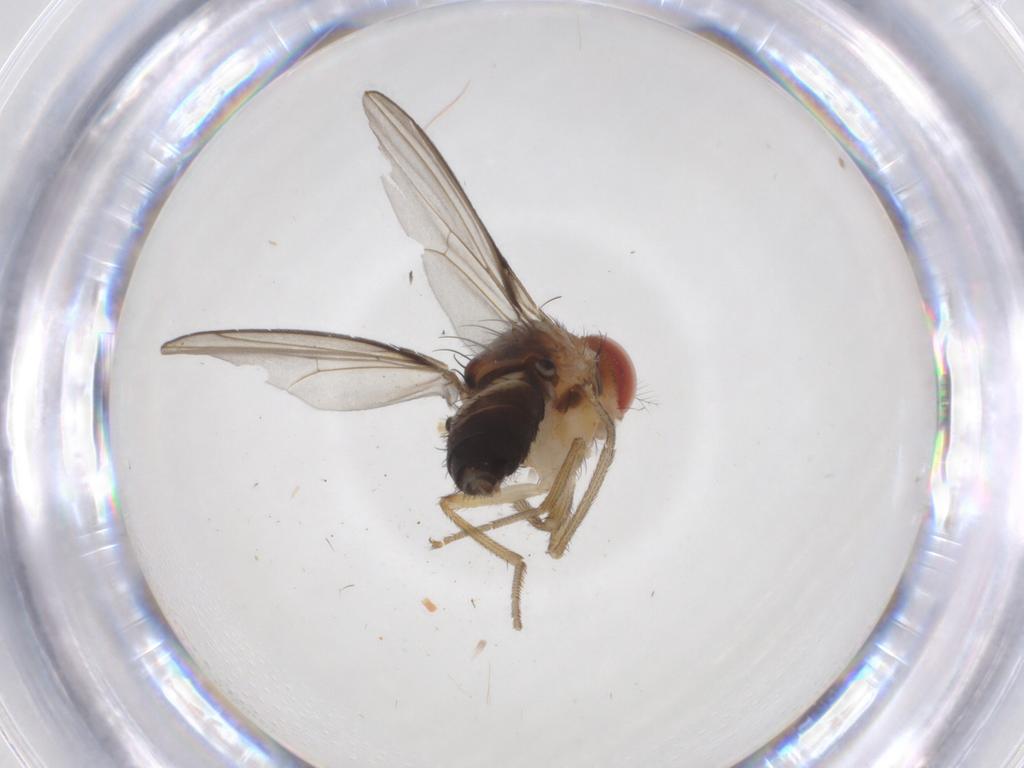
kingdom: Animalia
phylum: Arthropoda
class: Insecta
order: Diptera
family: Drosophilidae
